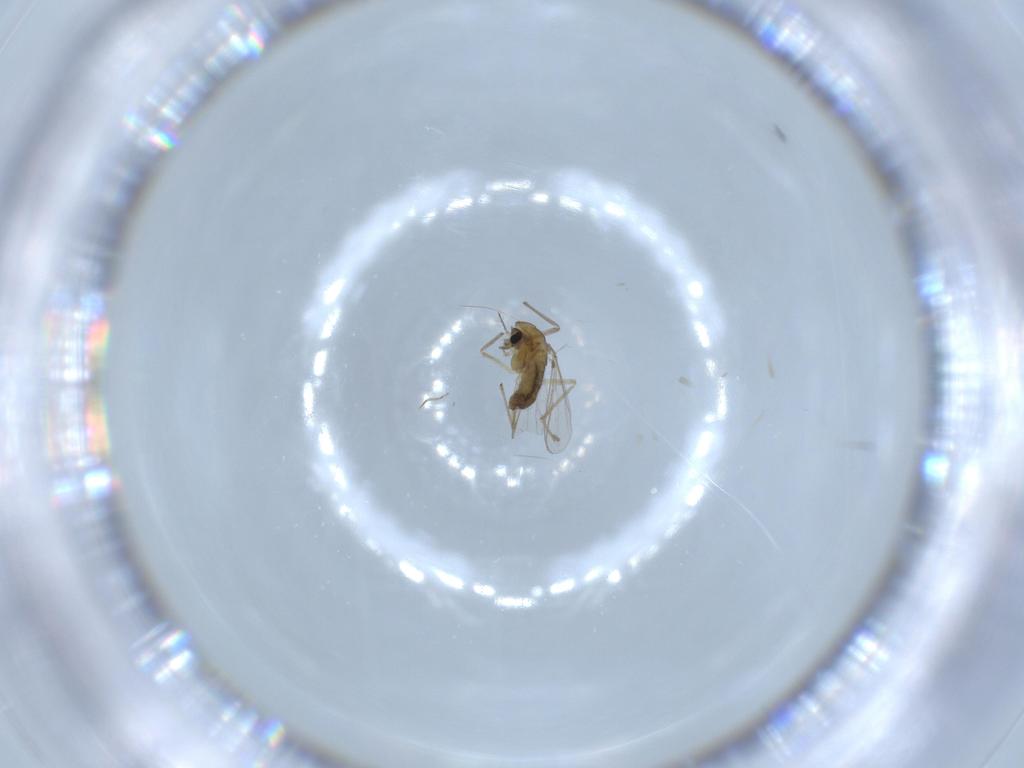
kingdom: Animalia
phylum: Arthropoda
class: Insecta
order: Diptera
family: Chironomidae
